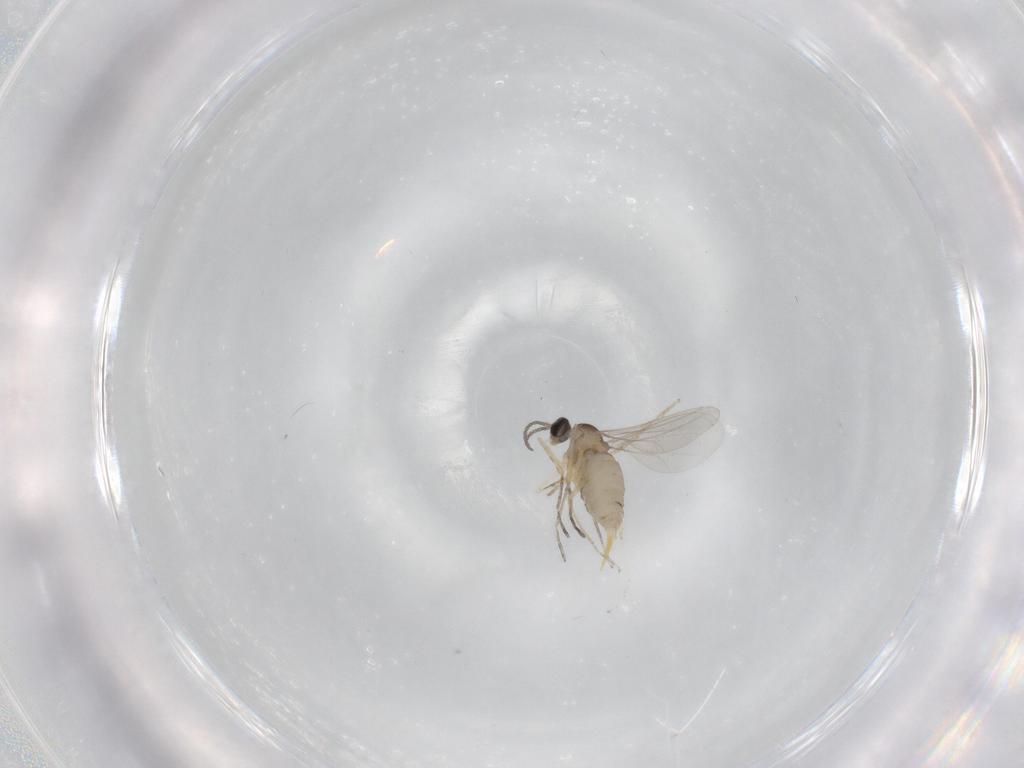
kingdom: Animalia
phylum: Arthropoda
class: Insecta
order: Diptera
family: Cecidomyiidae
